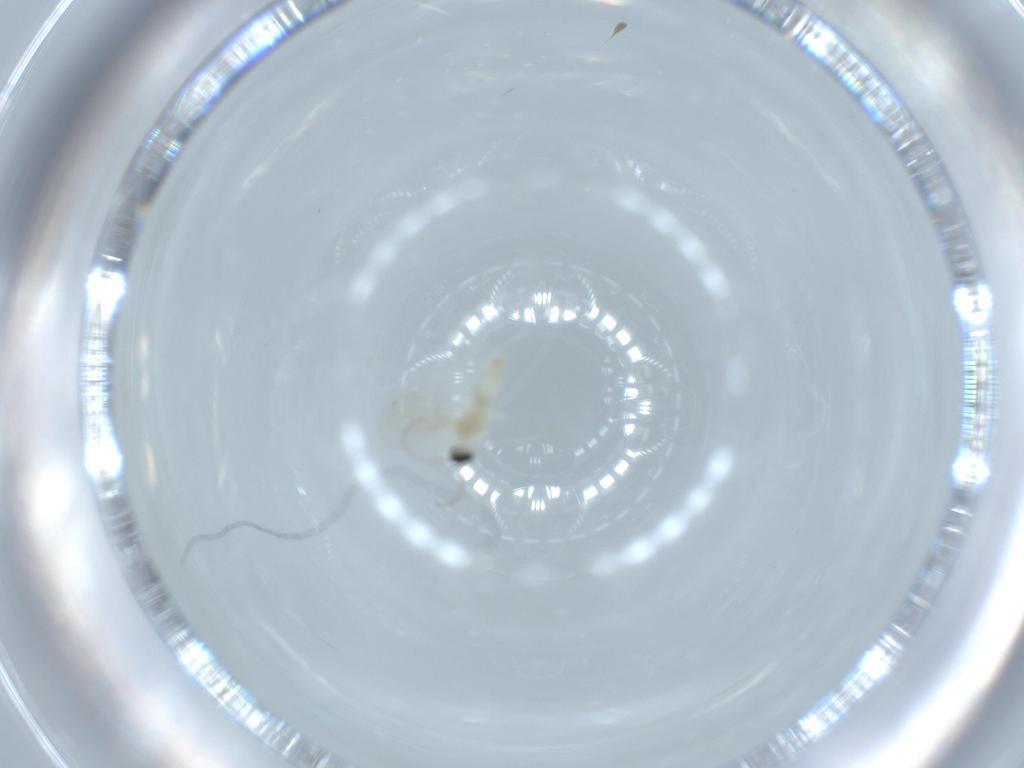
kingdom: Animalia
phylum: Arthropoda
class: Insecta
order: Diptera
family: Cecidomyiidae
